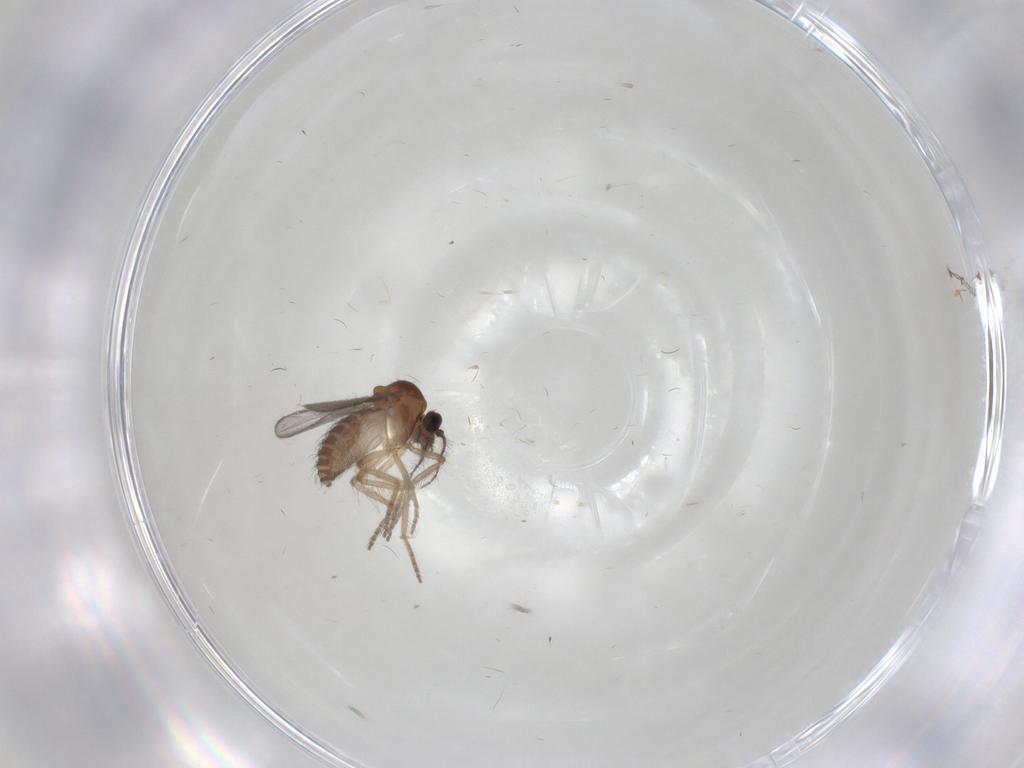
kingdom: Animalia
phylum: Arthropoda
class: Insecta
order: Diptera
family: Ceratopogonidae
